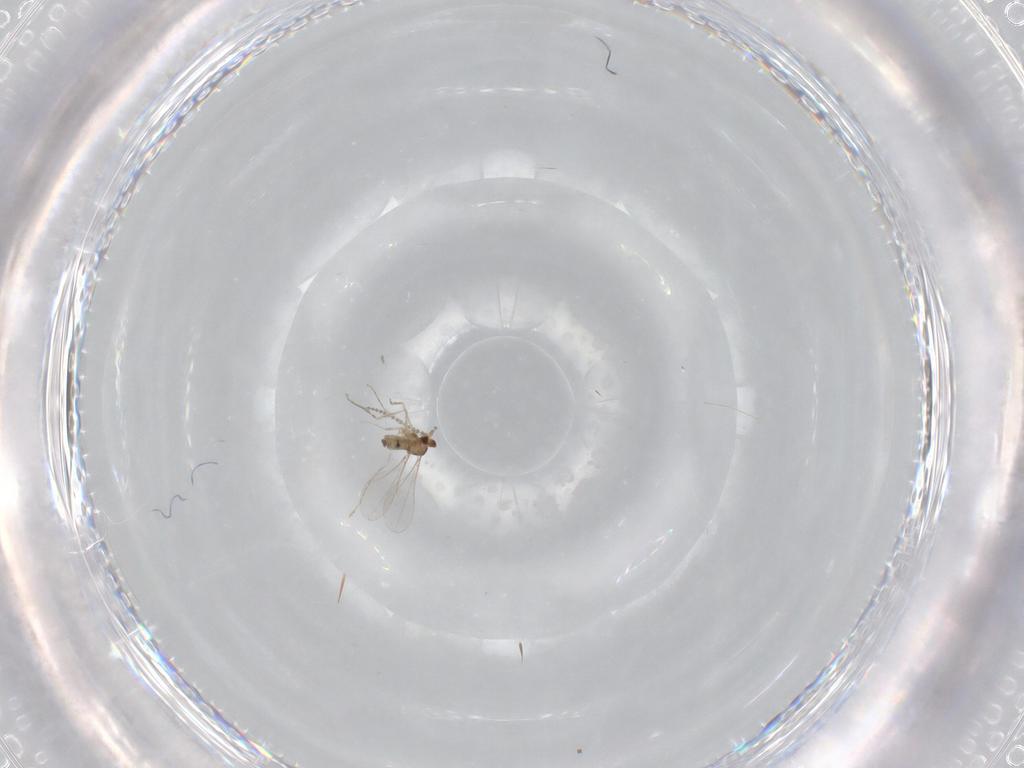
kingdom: Animalia
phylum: Arthropoda
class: Insecta
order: Diptera
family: Cecidomyiidae
